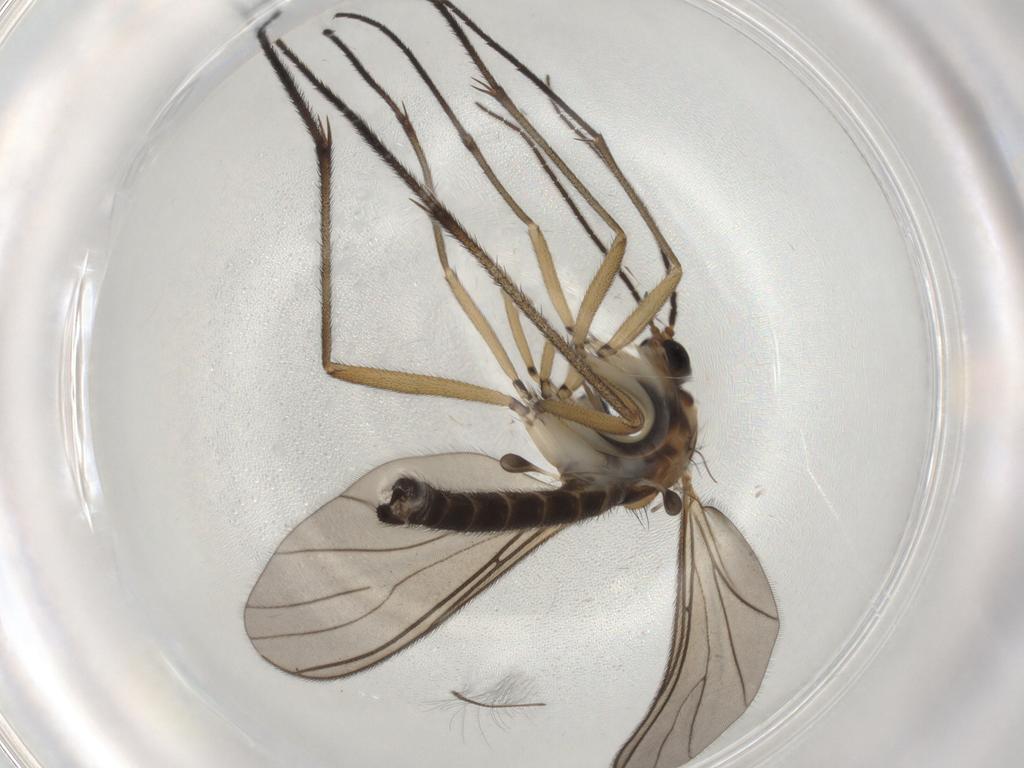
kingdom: Animalia
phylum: Arthropoda
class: Insecta
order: Diptera
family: Sciaridae
